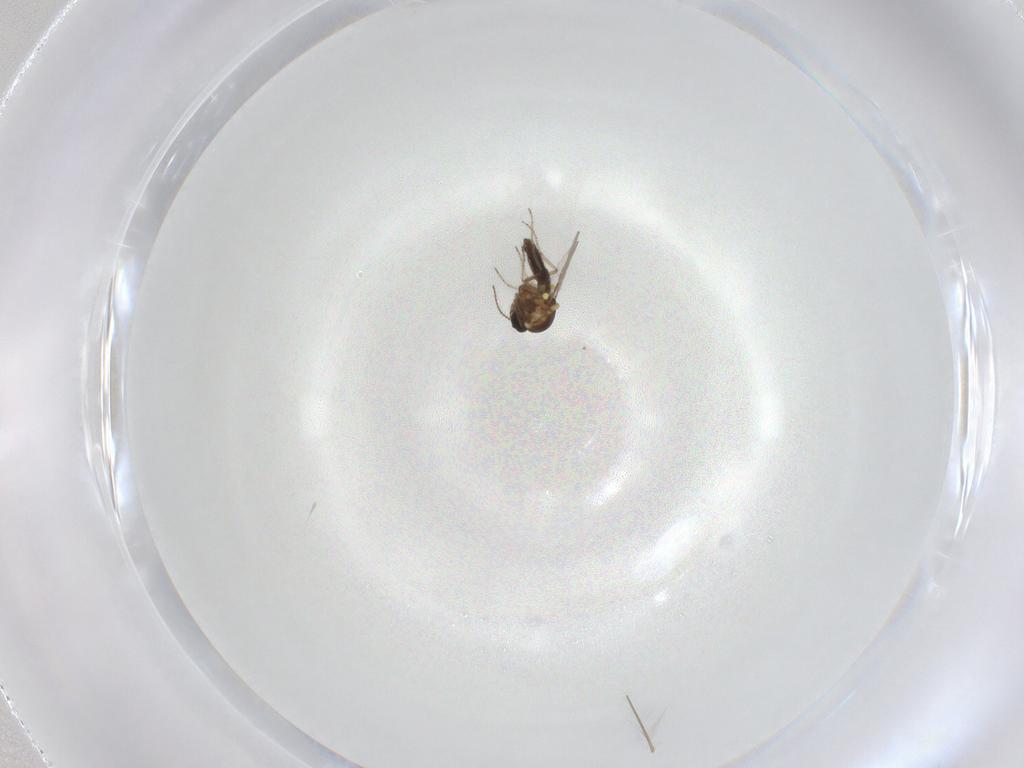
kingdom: Animalia
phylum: Arthropoda
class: Insecta
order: Diptera
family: Ceratopogonidae
